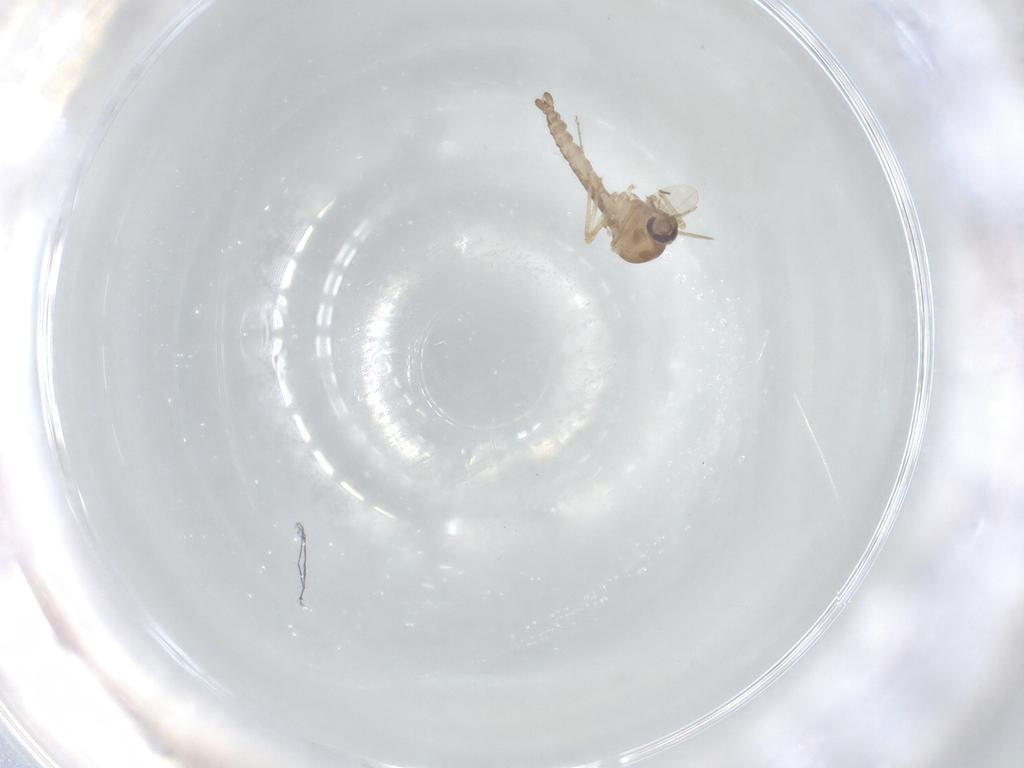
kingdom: Animalia
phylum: Arthropoda
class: Insecta
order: Diptera
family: Ceratopogonidae
